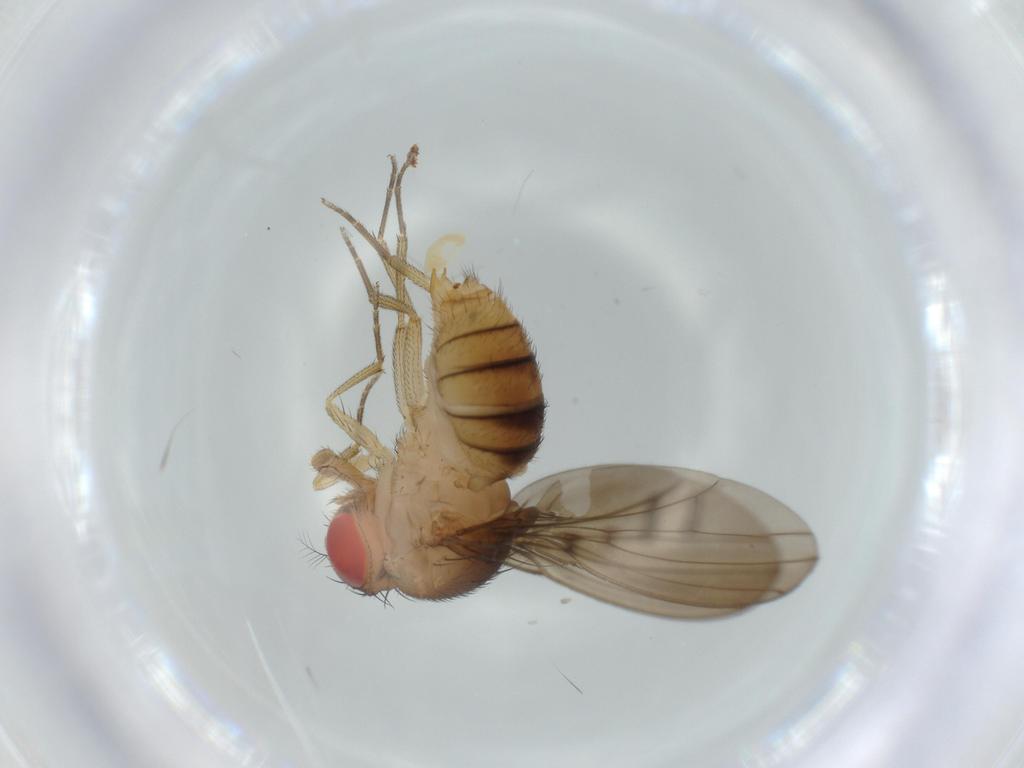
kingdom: Animalia
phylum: Arthropoda
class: Insecta
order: Diptera
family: Drosophilidae
